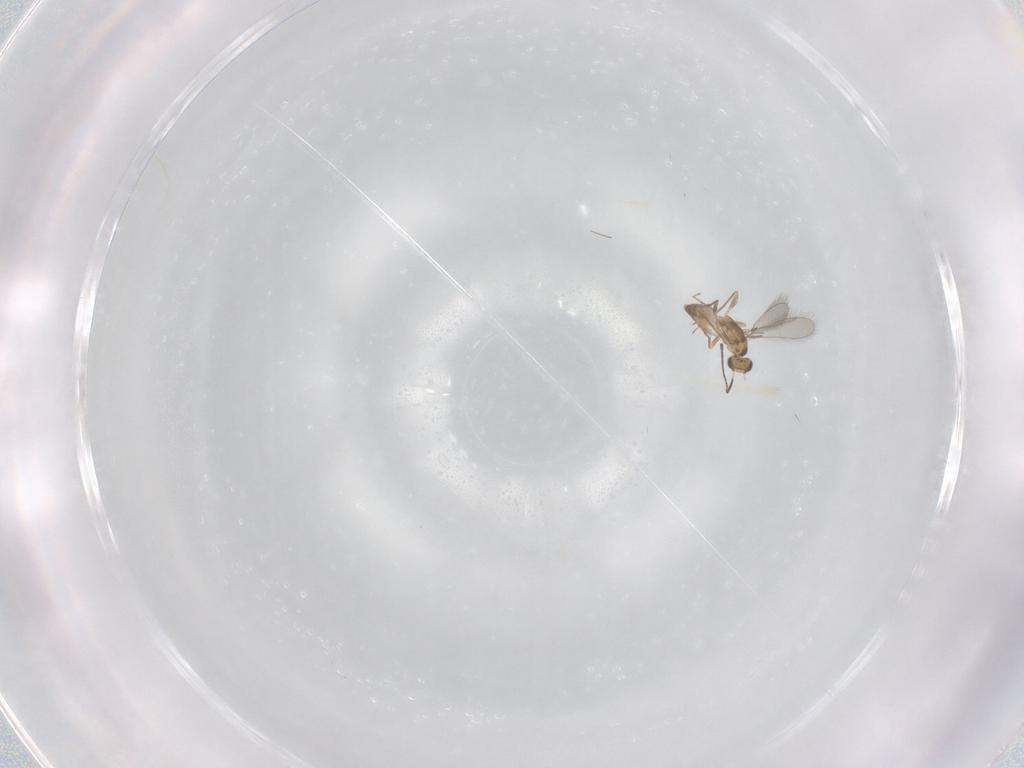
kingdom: Animalia
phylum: Arthropoda
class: Insecta
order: Hymenoptera
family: Mymaridae
